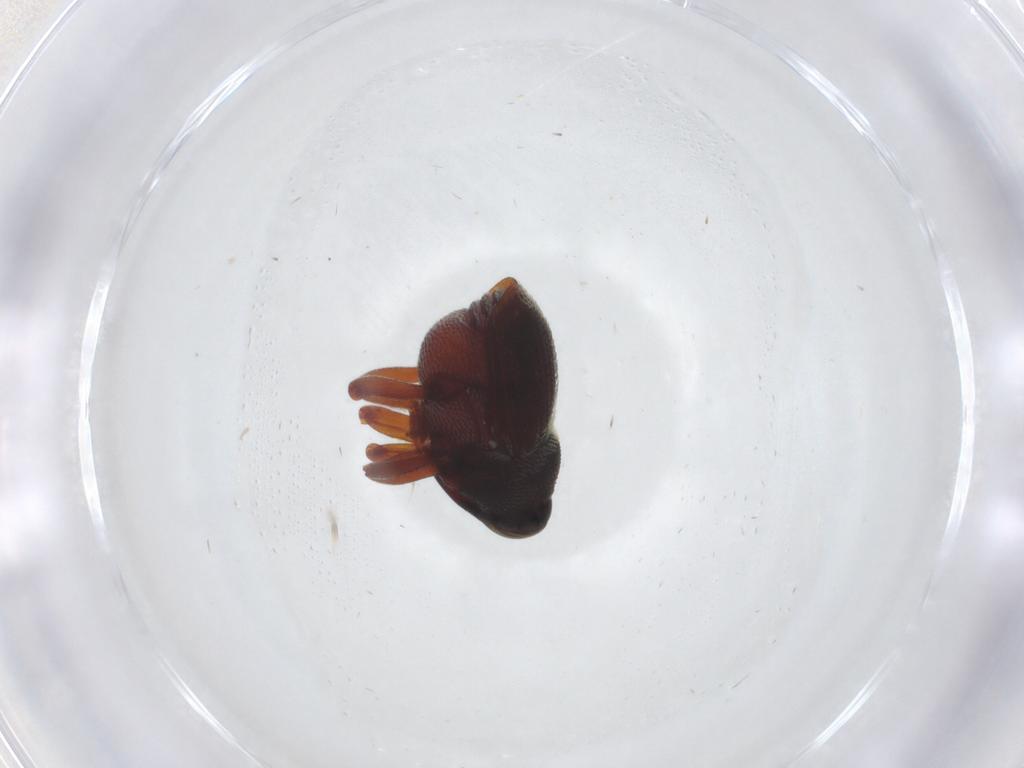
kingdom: Animalia
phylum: Arthropoda
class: Insecta
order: Coleoptera
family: Curculionidae
